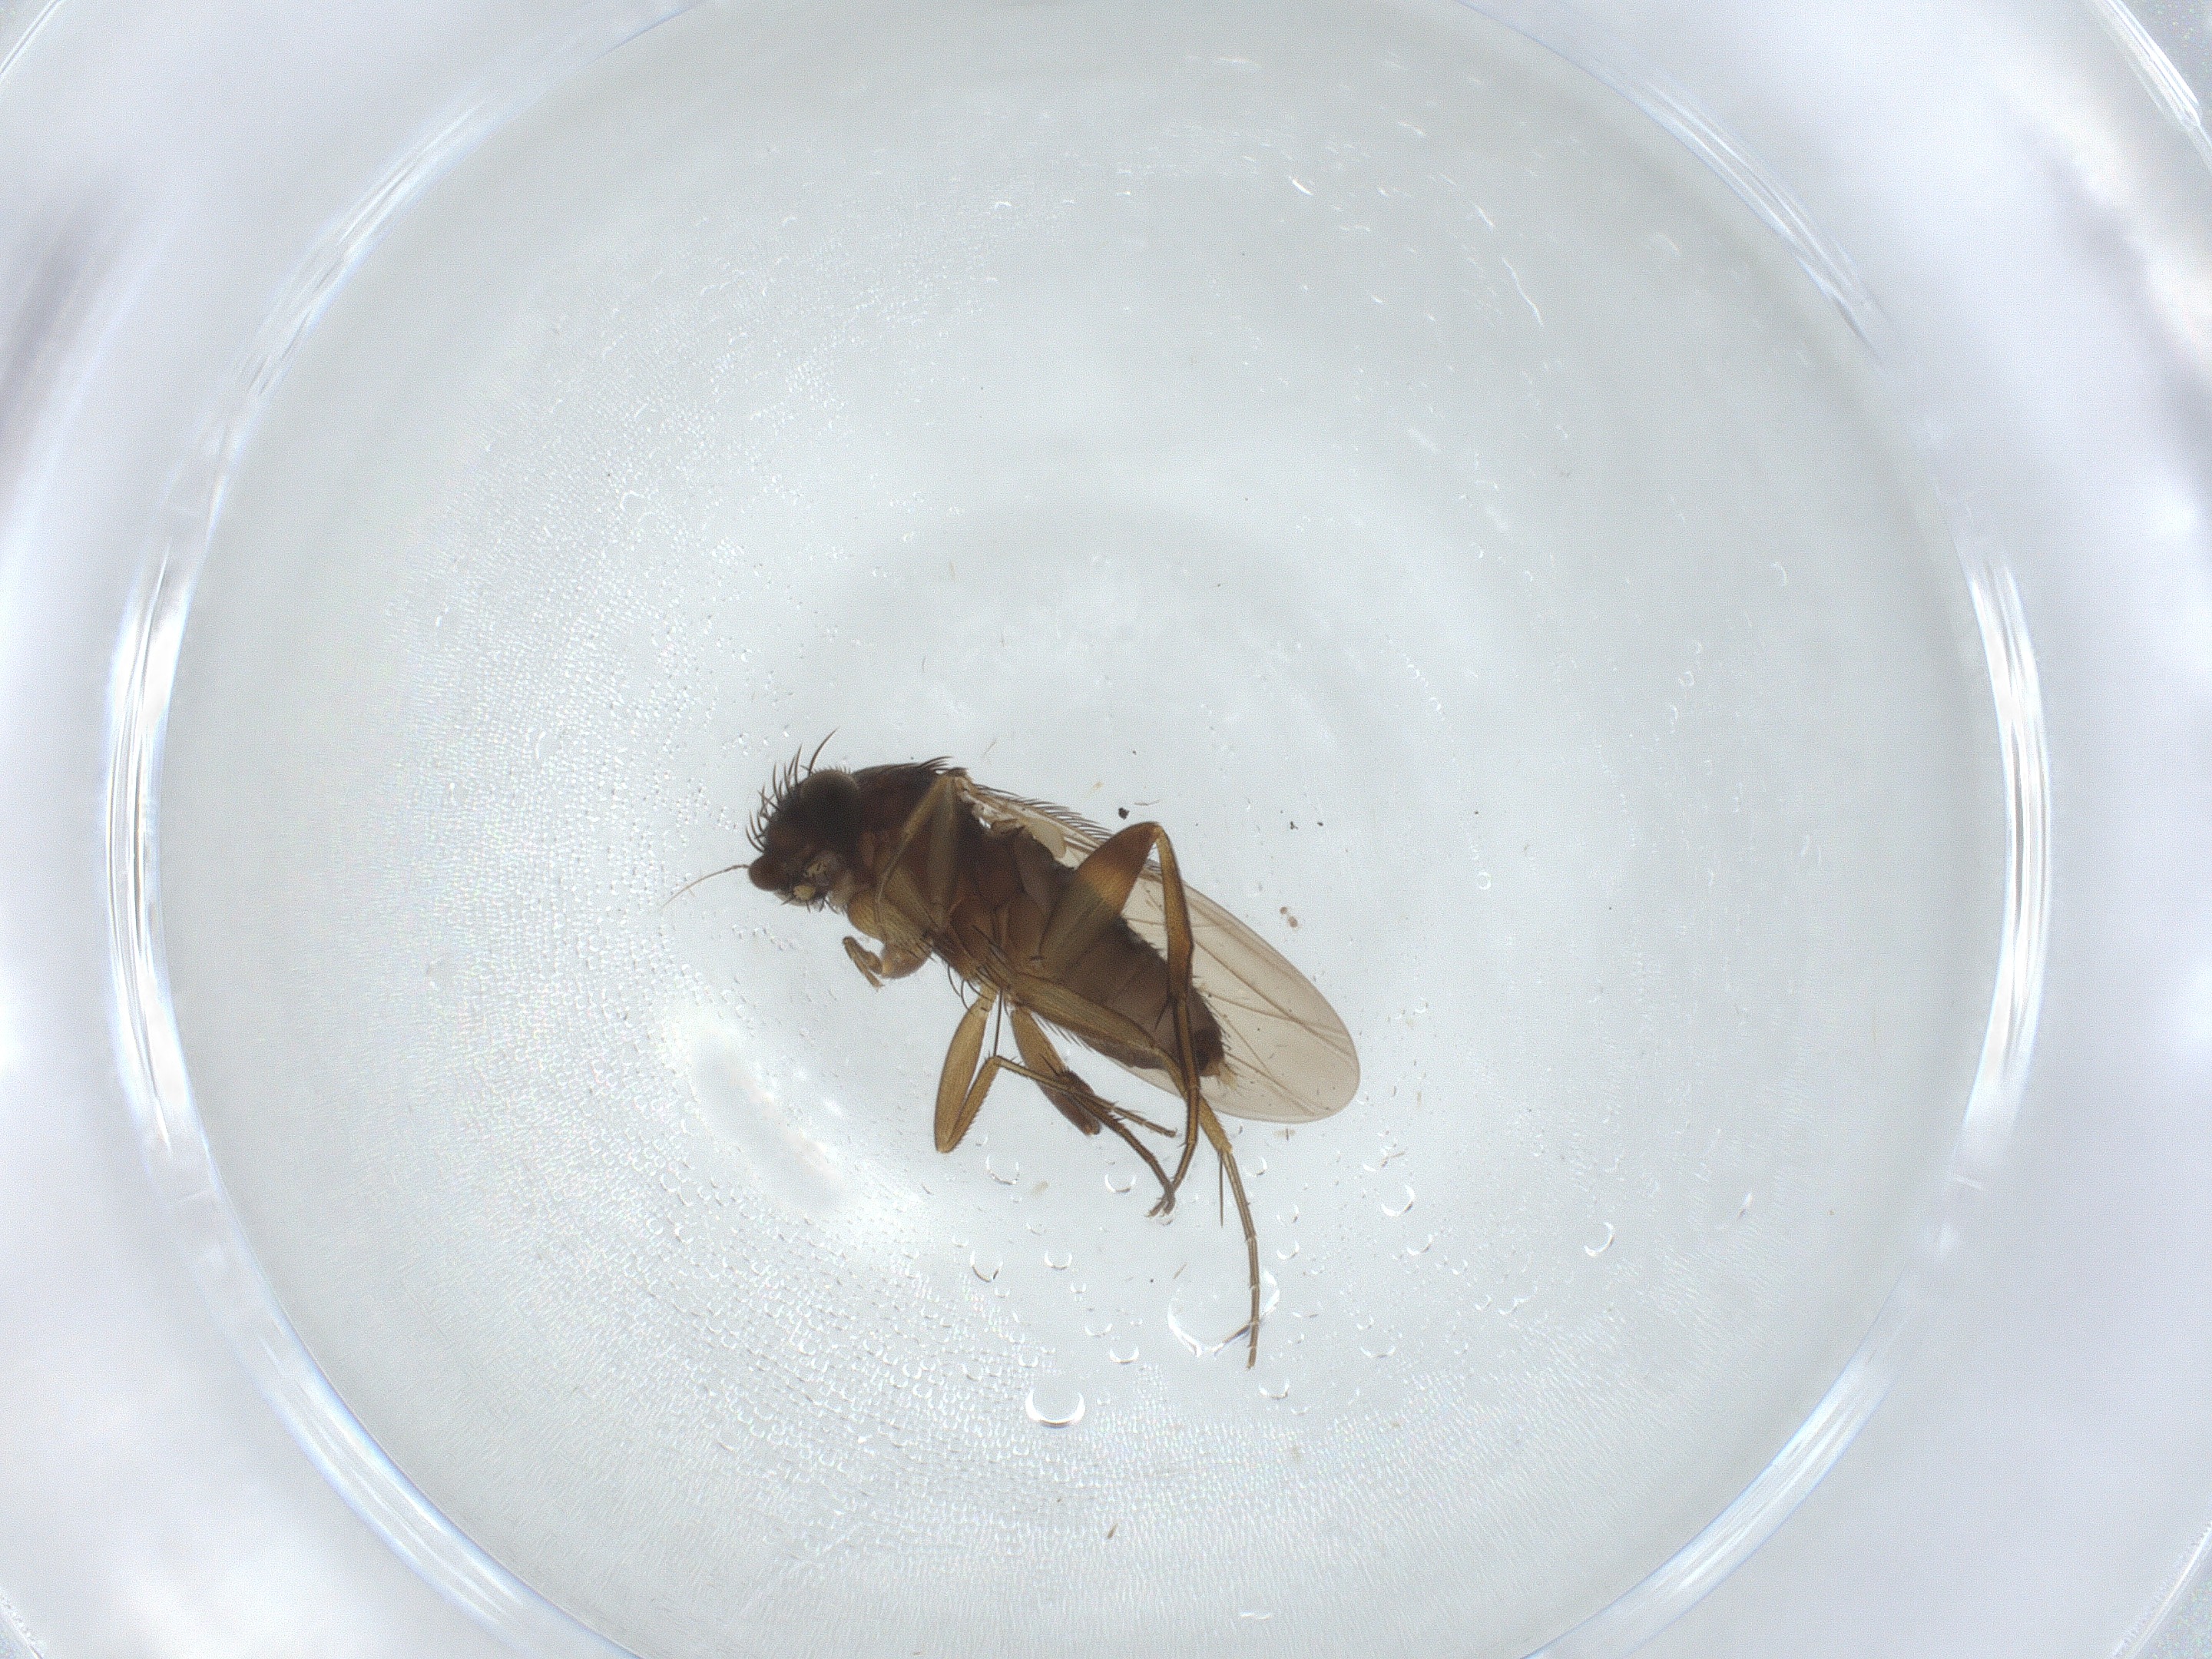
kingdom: Animalia
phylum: Arthropoda
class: Insecta
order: Diptera
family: Phoridae
